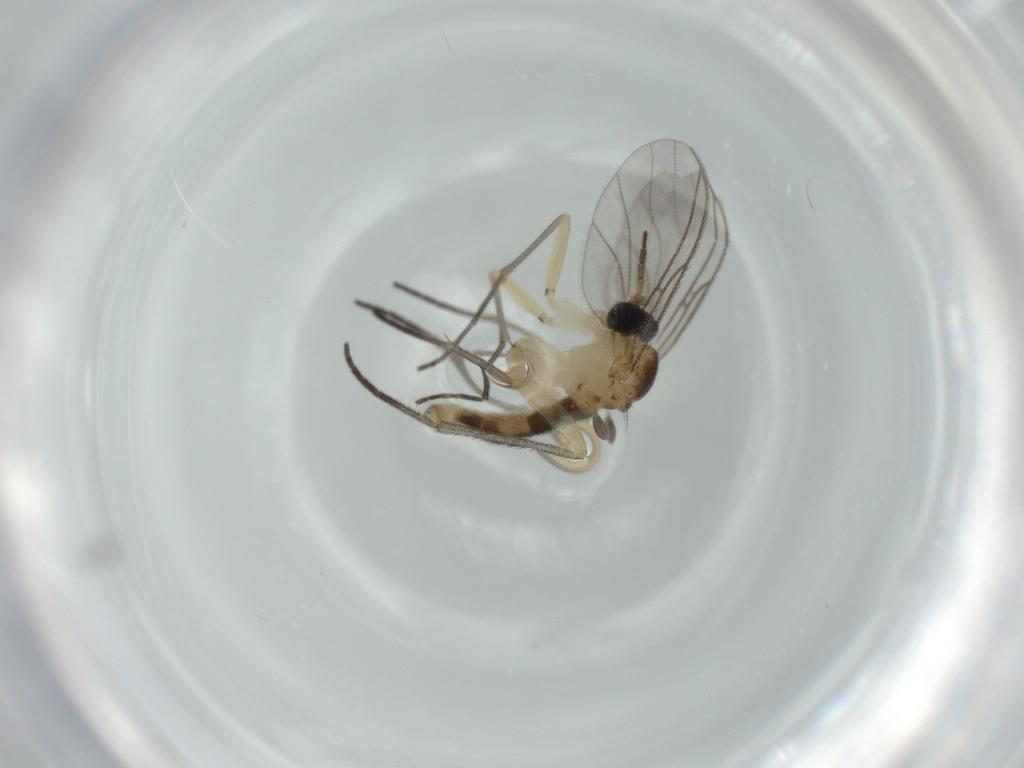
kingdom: Animalia
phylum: Arthropoda
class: Insecta
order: Diptera
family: Sciaridae
